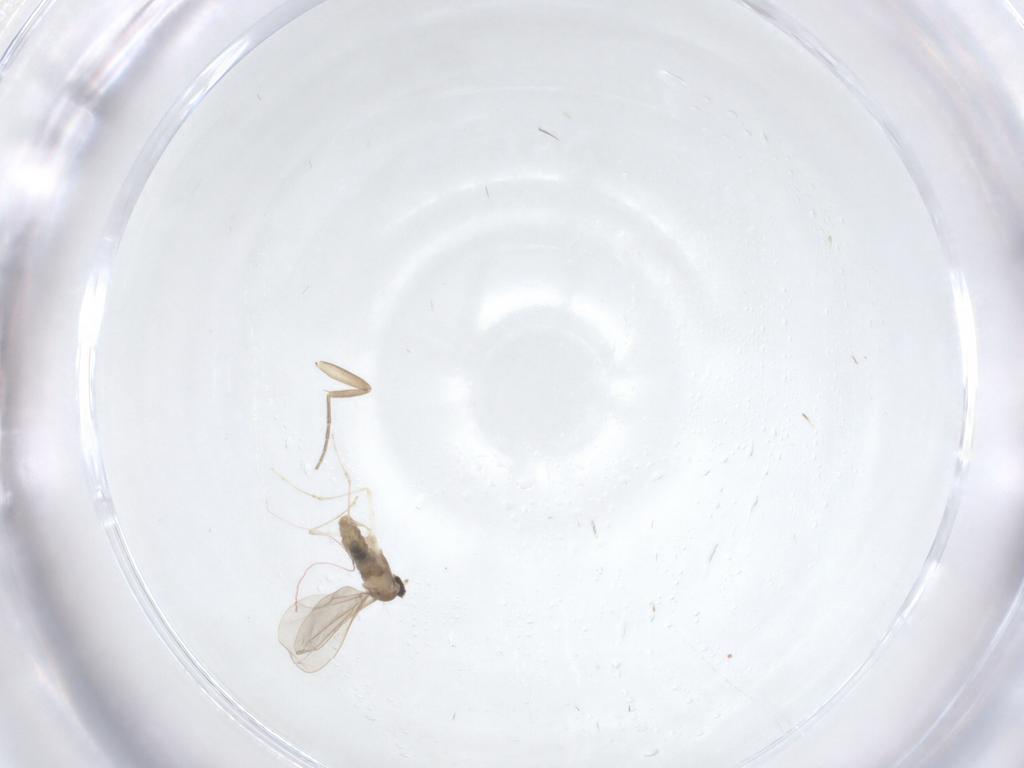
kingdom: Animalia
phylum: Arthropoda
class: Insecta
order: Diptera
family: Cecidomyiidae
